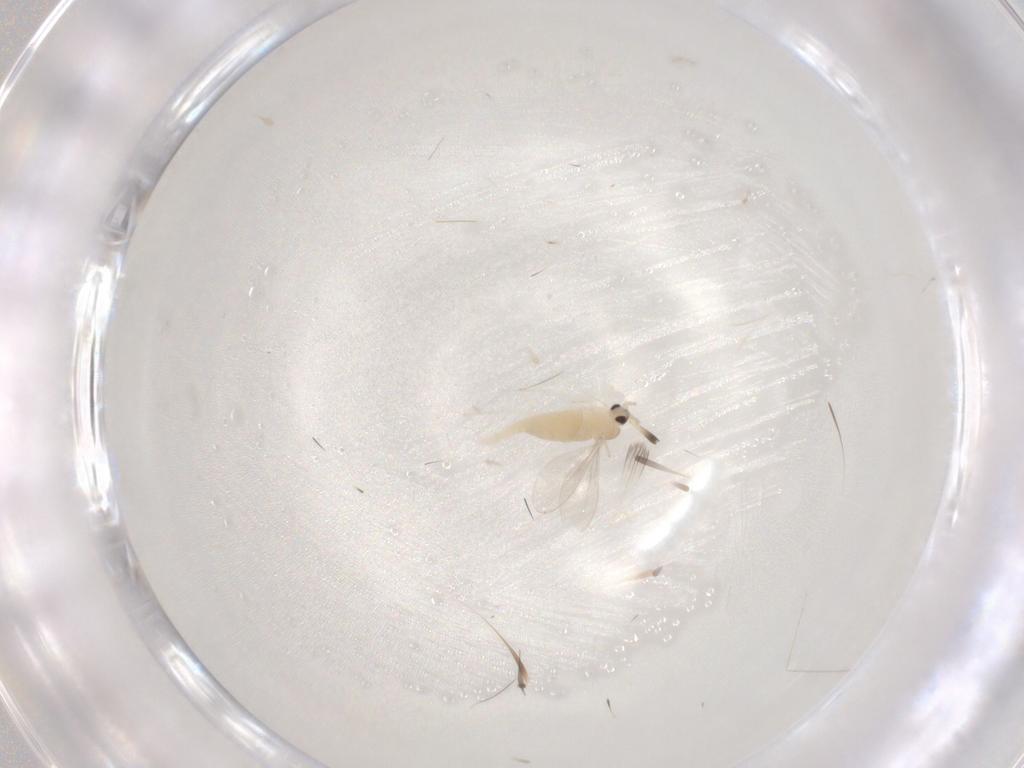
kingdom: Animalia
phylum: Arthropoda
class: Insecta
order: Diptera
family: Cecidomyiidae
